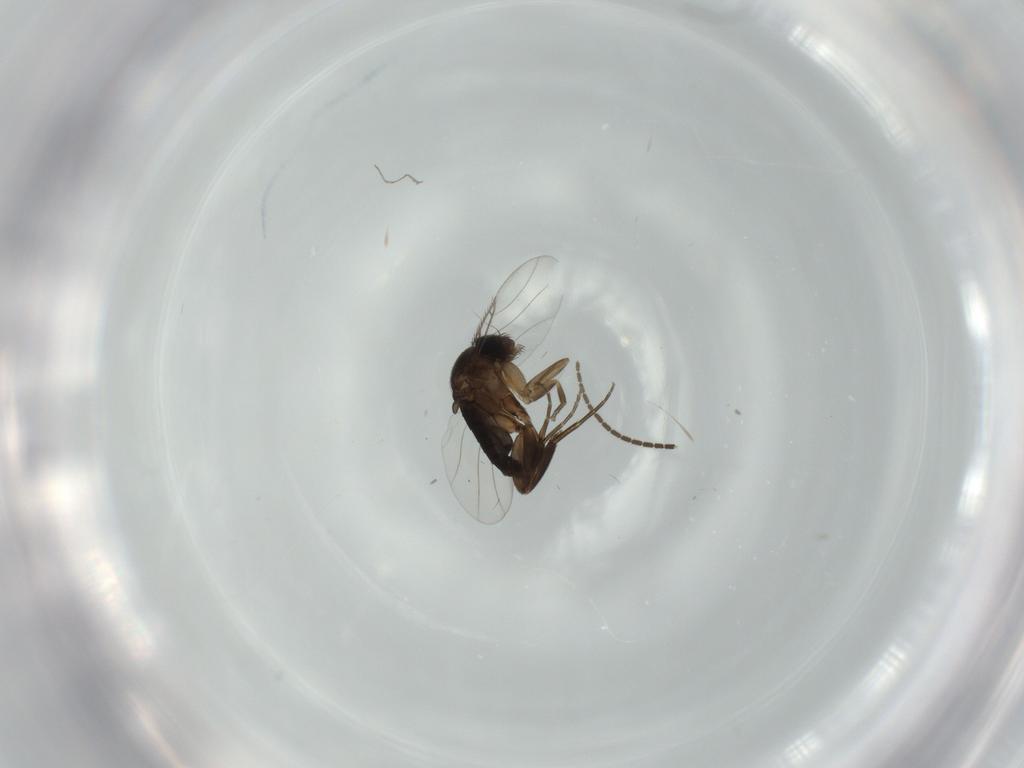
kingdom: Animalia
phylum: Arthropoda
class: Insecta
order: Diptera
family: Phoridae
